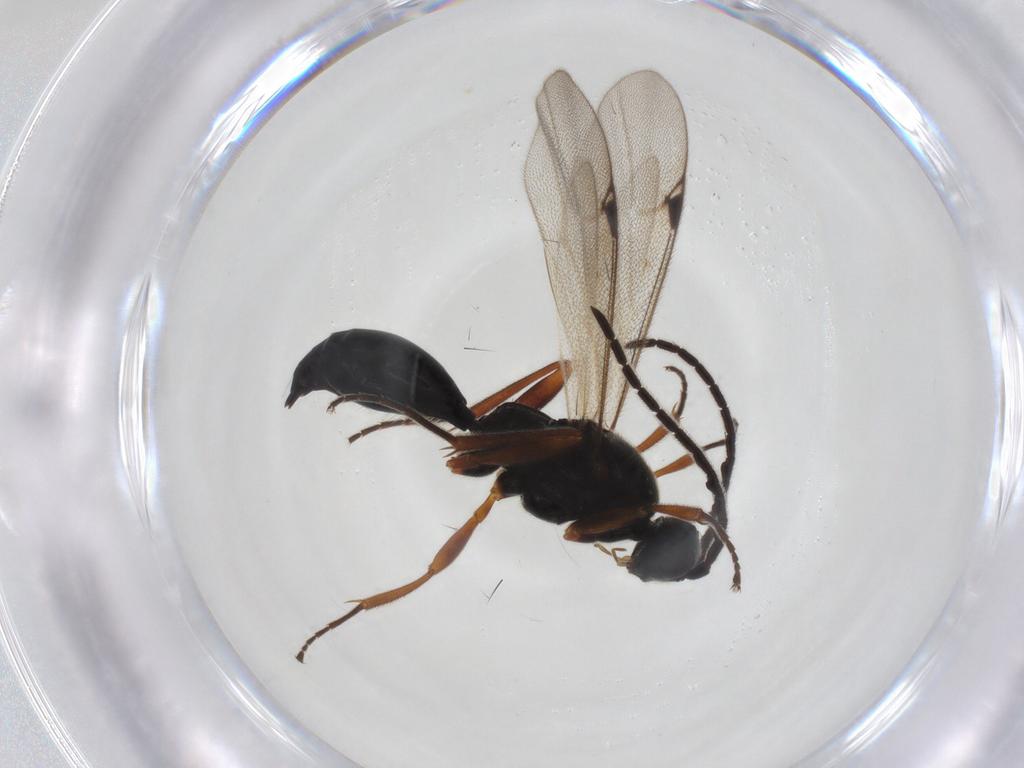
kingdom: Animalia
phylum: Arthropoda
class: Insecta
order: Hymenoptera
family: Proctotrupidae
